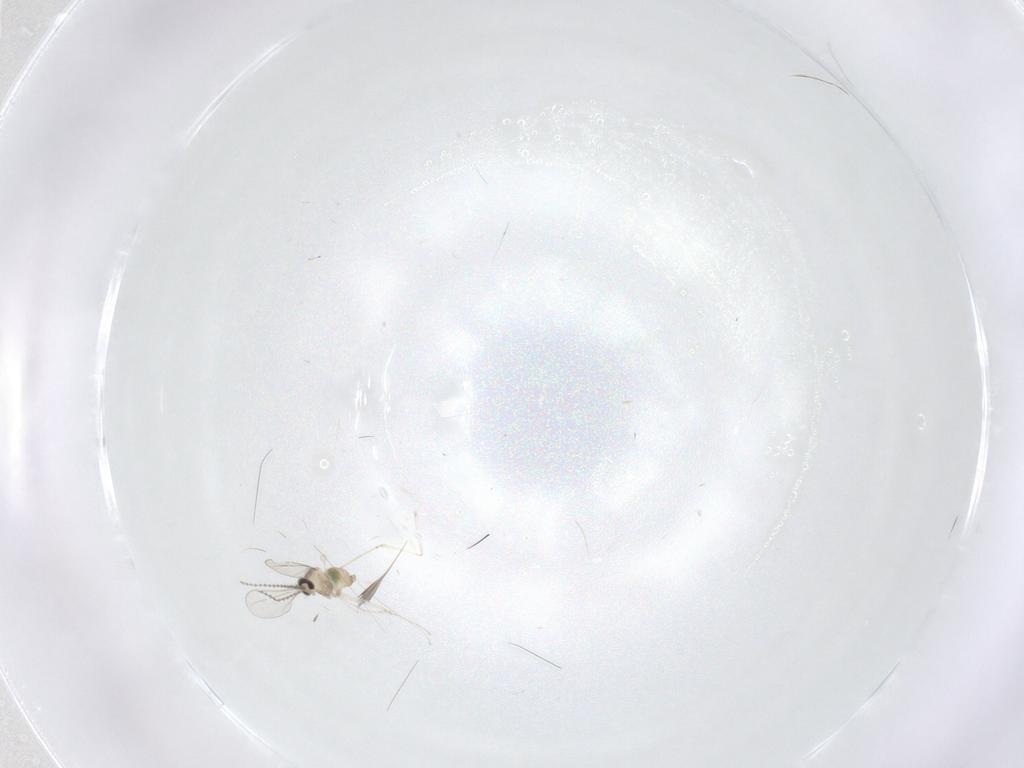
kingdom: Animalia
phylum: Arthropoda
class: Insecta
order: Diptera
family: Cecidomyiidae
